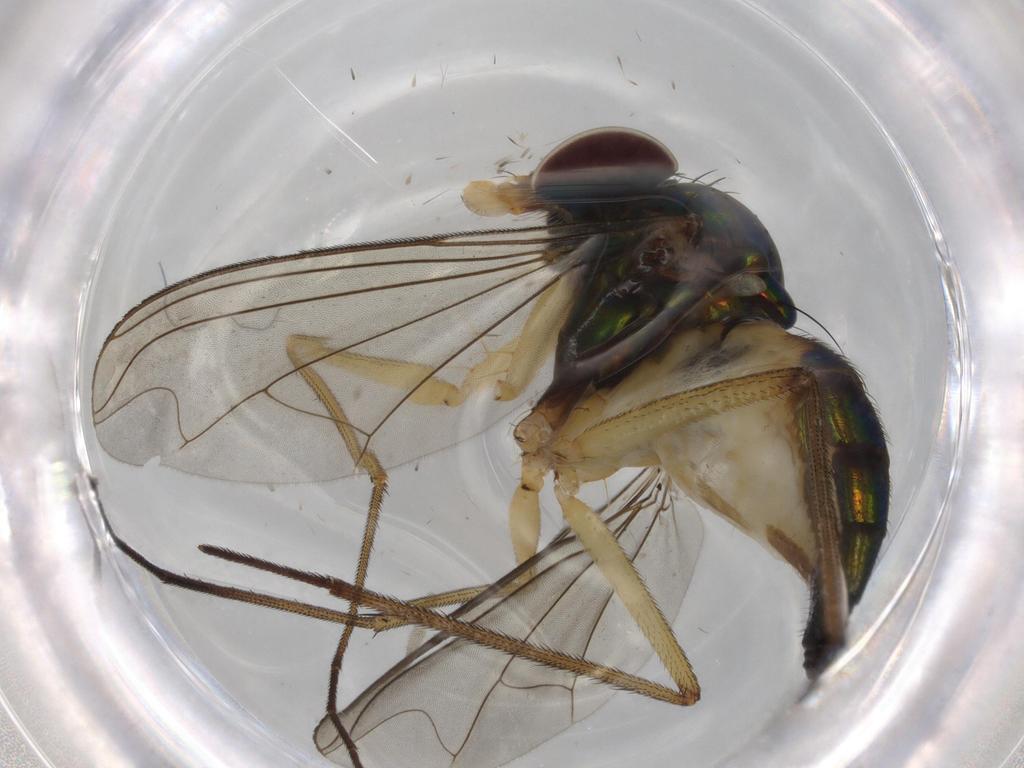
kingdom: Animalia
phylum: Arthropoda
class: Insecta
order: Diptera
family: Dolichopodidae
